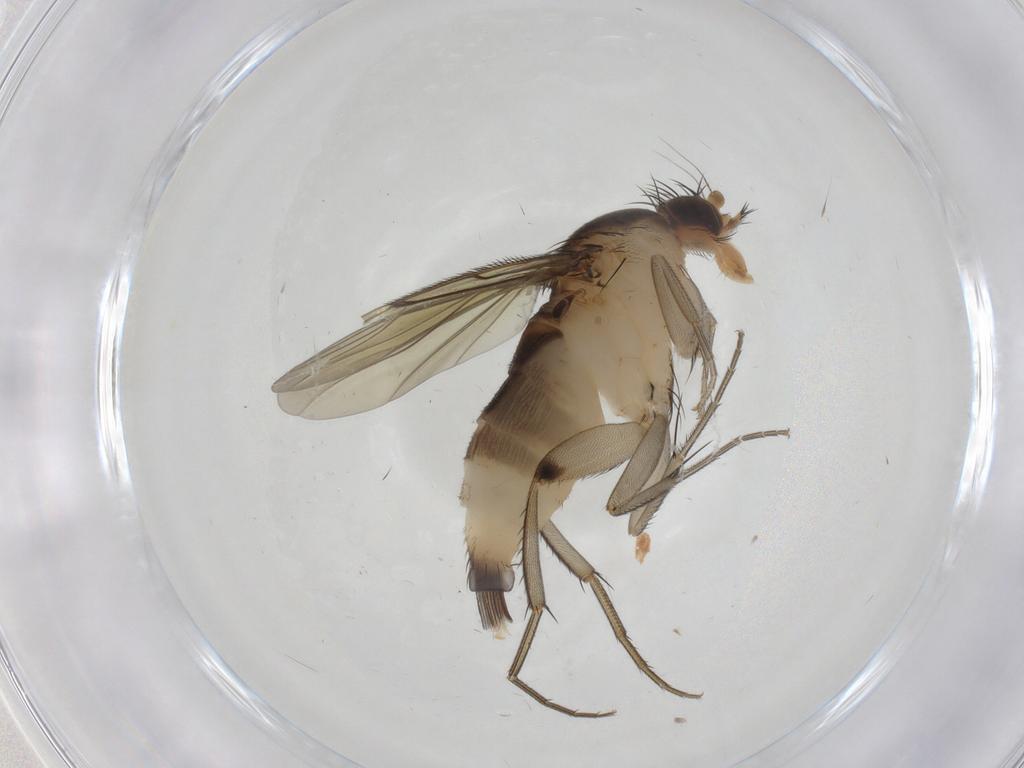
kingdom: Animalia
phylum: Arthropoda
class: Insecta
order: Diptera
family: Phoridae
